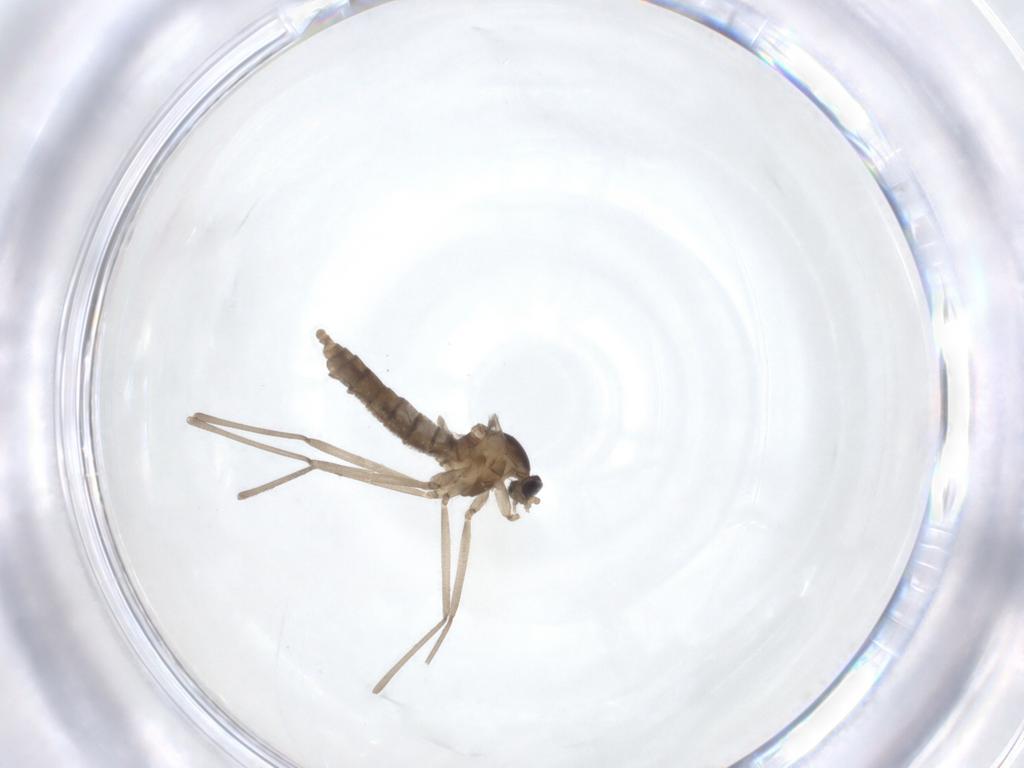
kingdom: Animalia
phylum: Arthropoda
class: Insecta
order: Diptera
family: Cecidomyiidae
